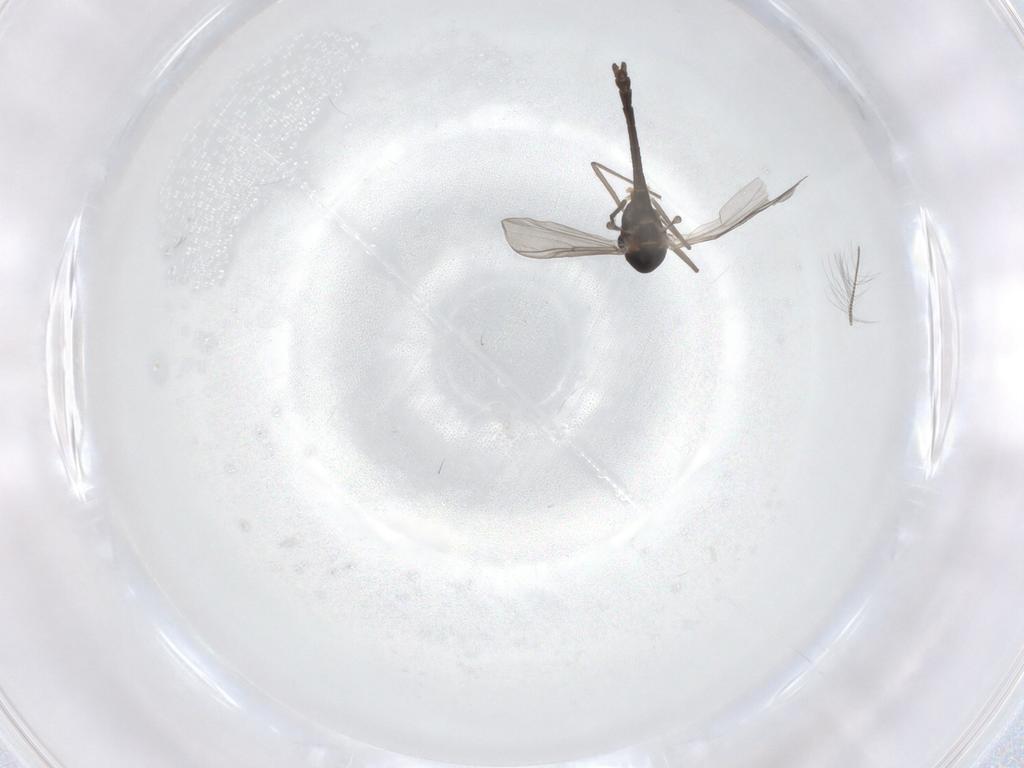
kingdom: Animalia
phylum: Arthropoda
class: Insecta
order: Diptera
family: Chironomidae
